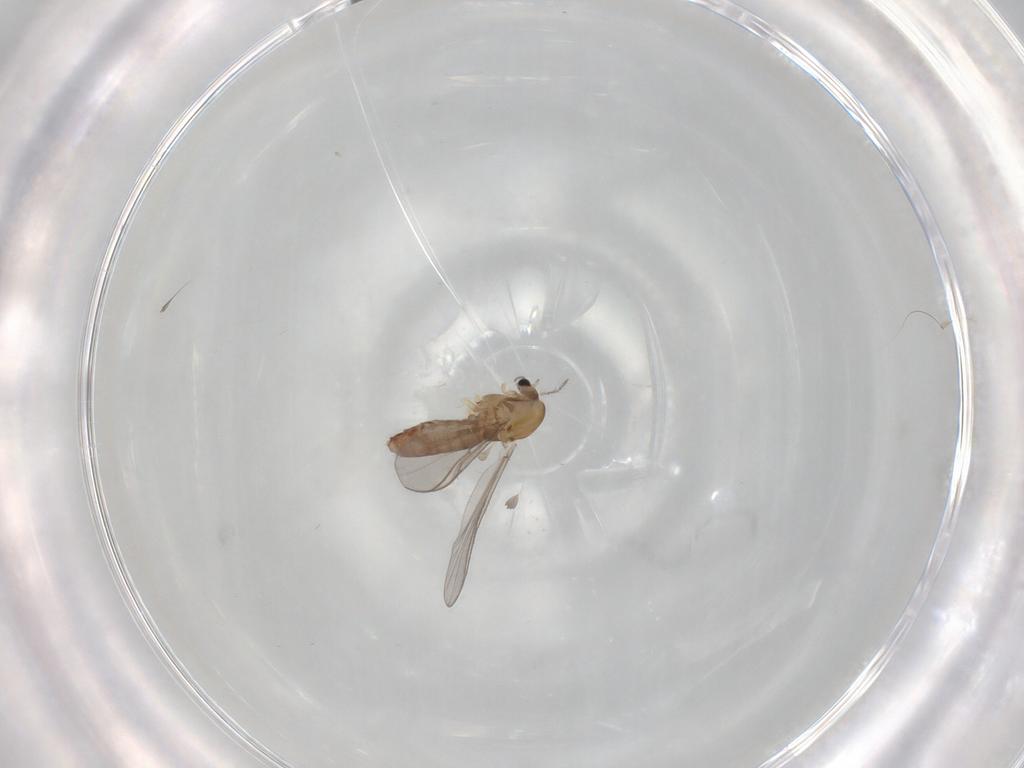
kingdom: Animalia
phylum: Arthropoda
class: Insecta
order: Diptera
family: Chironomidae
